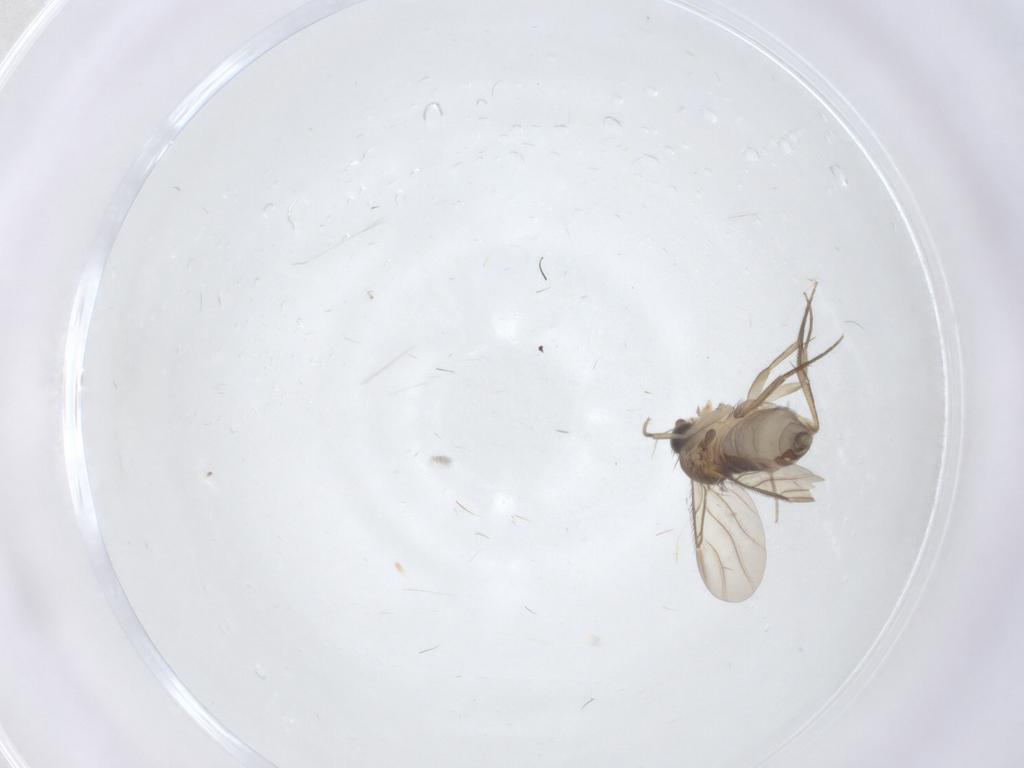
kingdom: Animalia
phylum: Arthropoda
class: Insecta
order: Diptera
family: Phoridae
